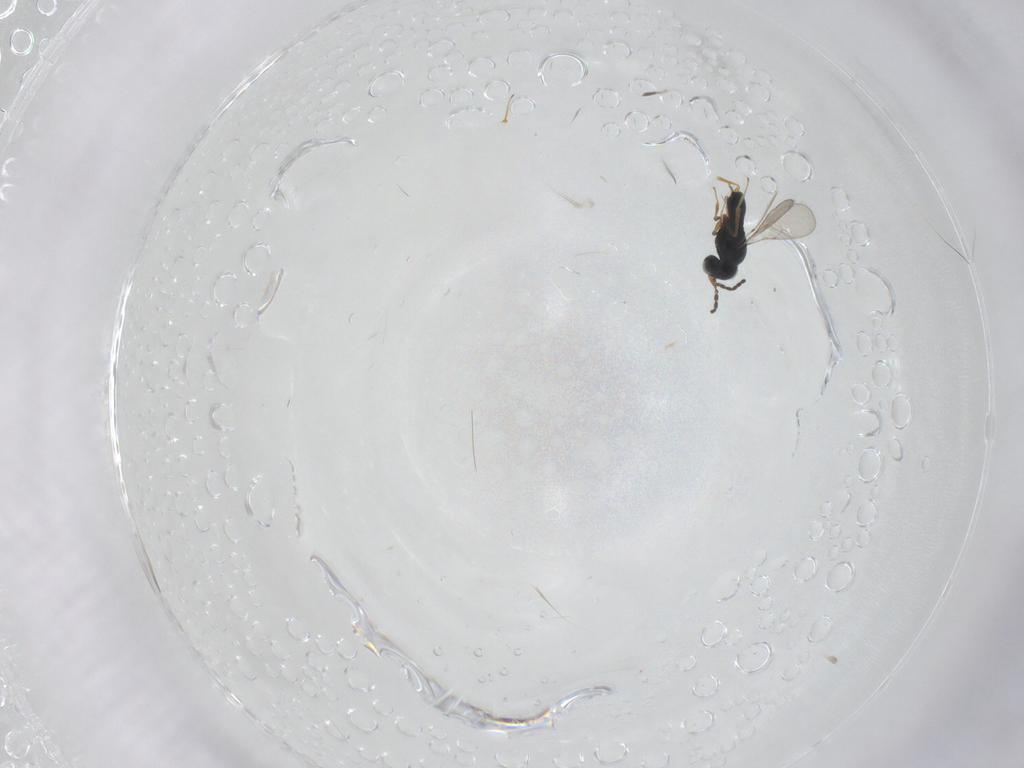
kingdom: Animalia
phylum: Arthropoda
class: Insecta
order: Hymenoptera
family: Scelionidae
